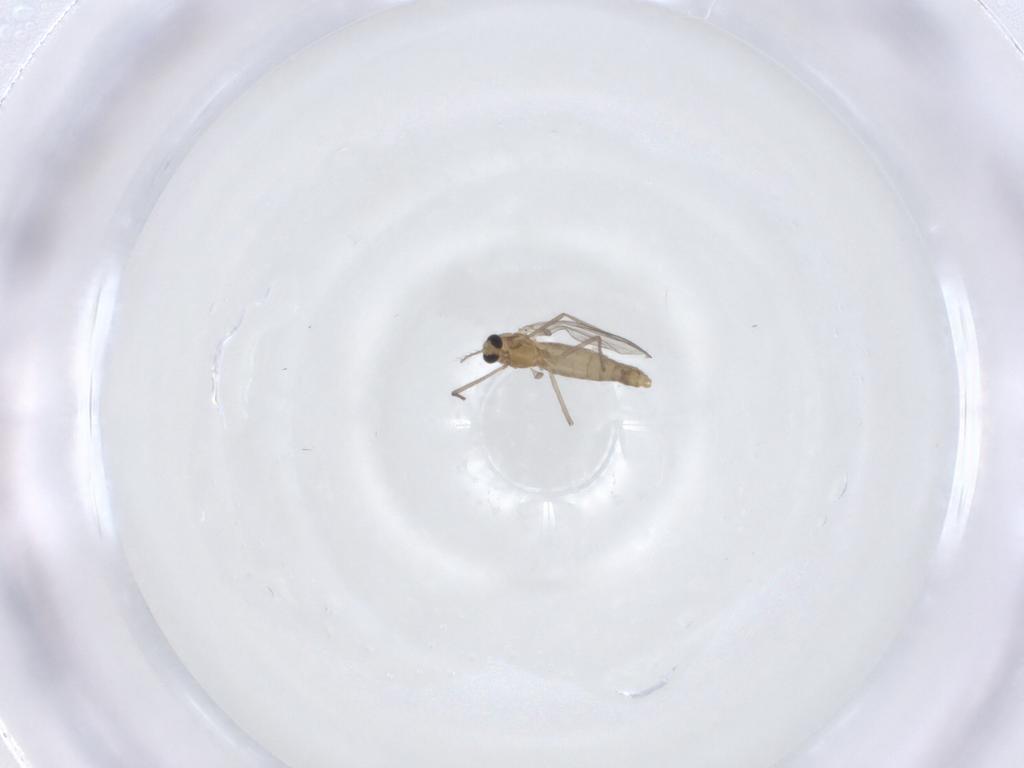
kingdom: Animalia
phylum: Arthropoda
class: Insecta
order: Diptera
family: Tabanidae
